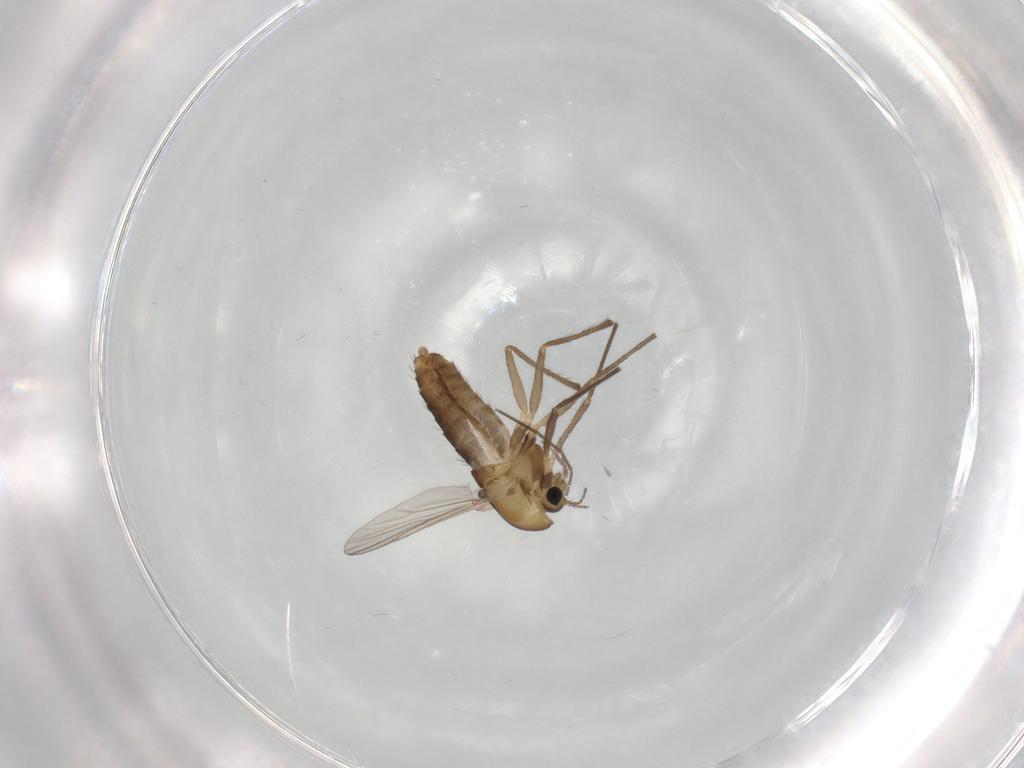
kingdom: Animalia
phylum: Arthropoda
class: Insecta
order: Diptera
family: Chironomidae
